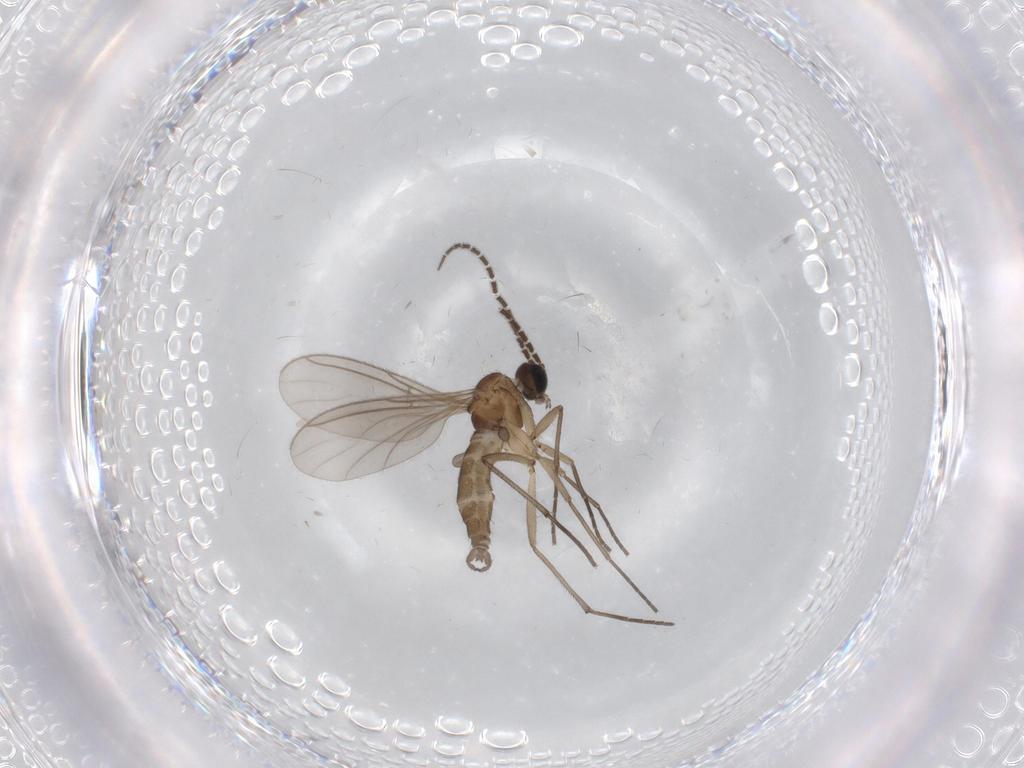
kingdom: Animalia
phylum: Arthropoda
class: Insecta
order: Diptera
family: Sciaridae
